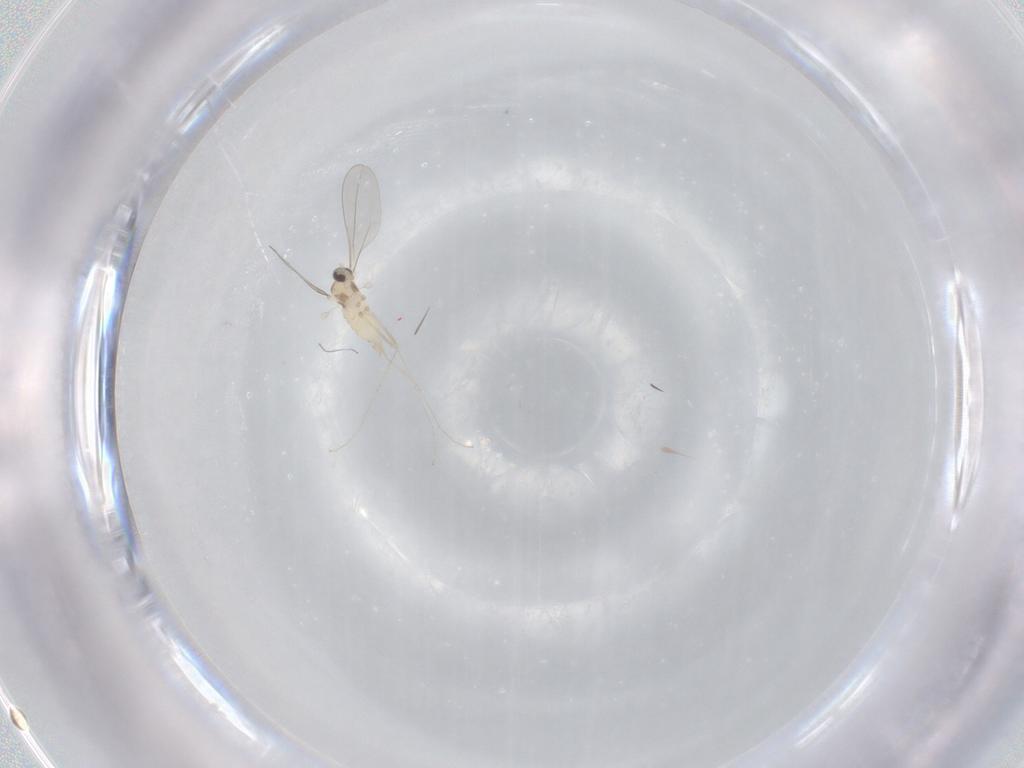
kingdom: Animalia
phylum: Arthropoda
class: Insecta
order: Diptera
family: Cecidomyiidae
